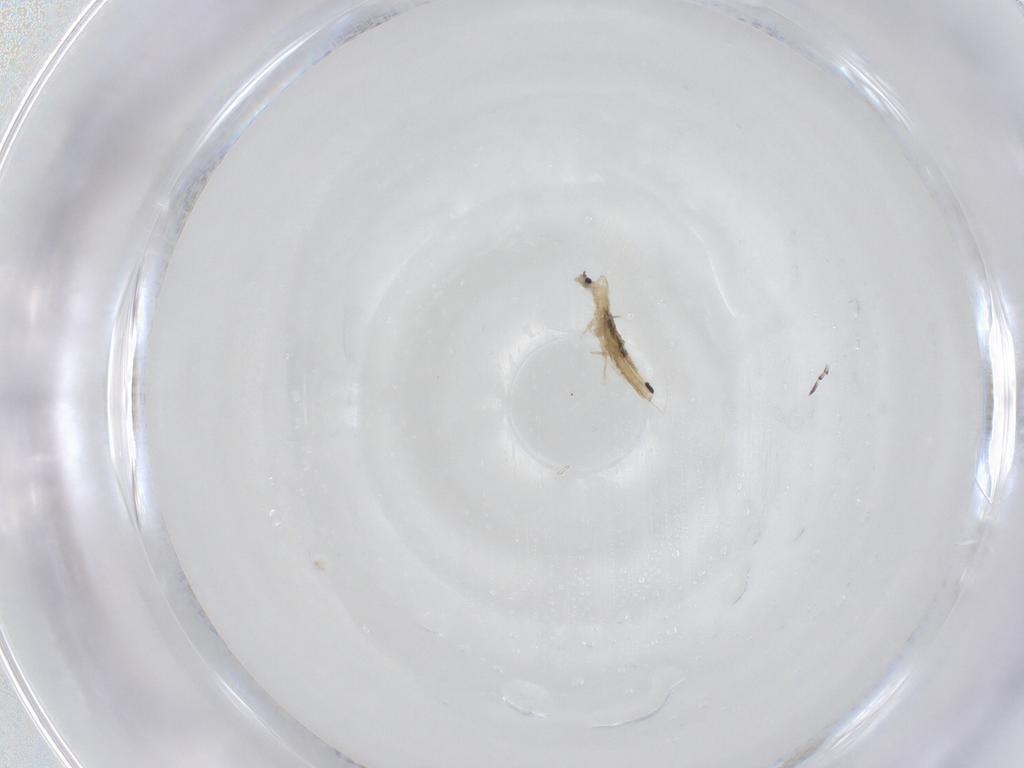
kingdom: Animalia
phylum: Arthropoda
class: Collembola
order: Entomobryomorpha
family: Entomobryidae
